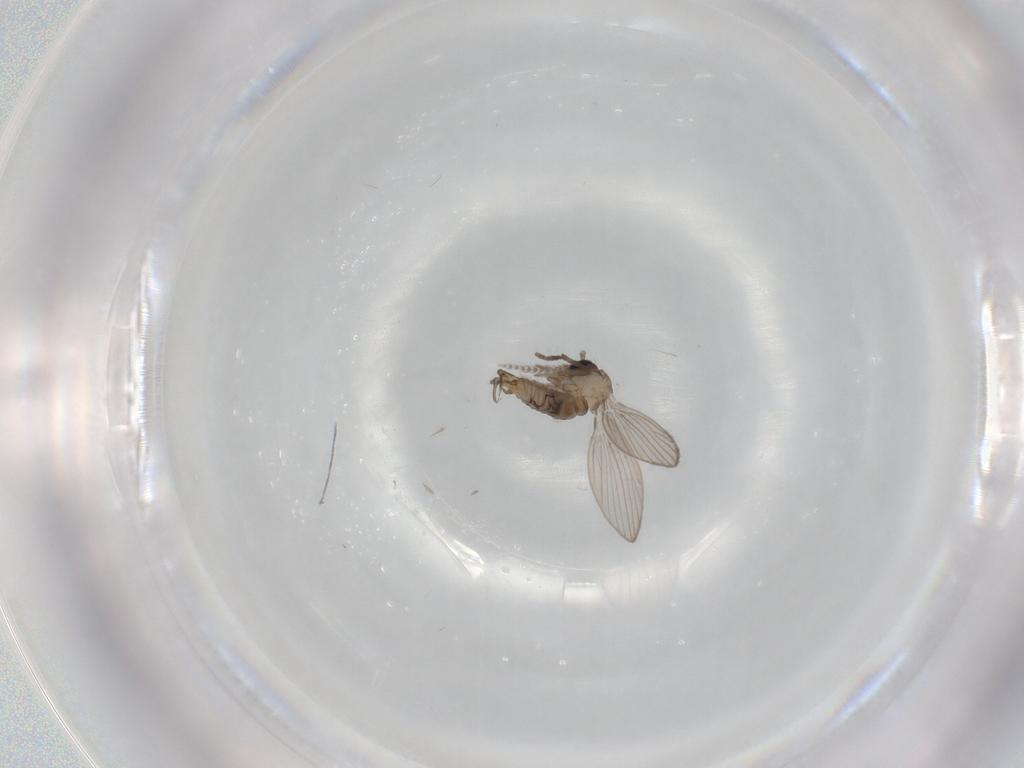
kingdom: Animalia
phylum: Arthropoda
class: Insecta
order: Diptera
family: Psychodidae
